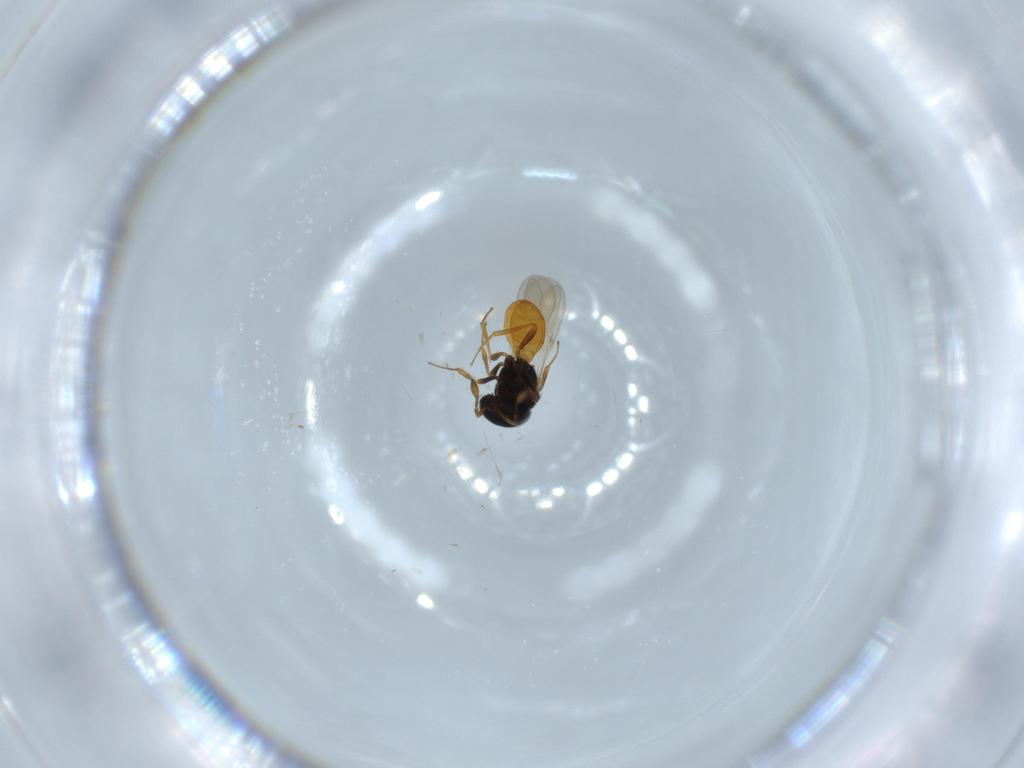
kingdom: Animalia
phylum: Arthropoda
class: Insecta
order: Hymenoptera
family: Scelionidae
